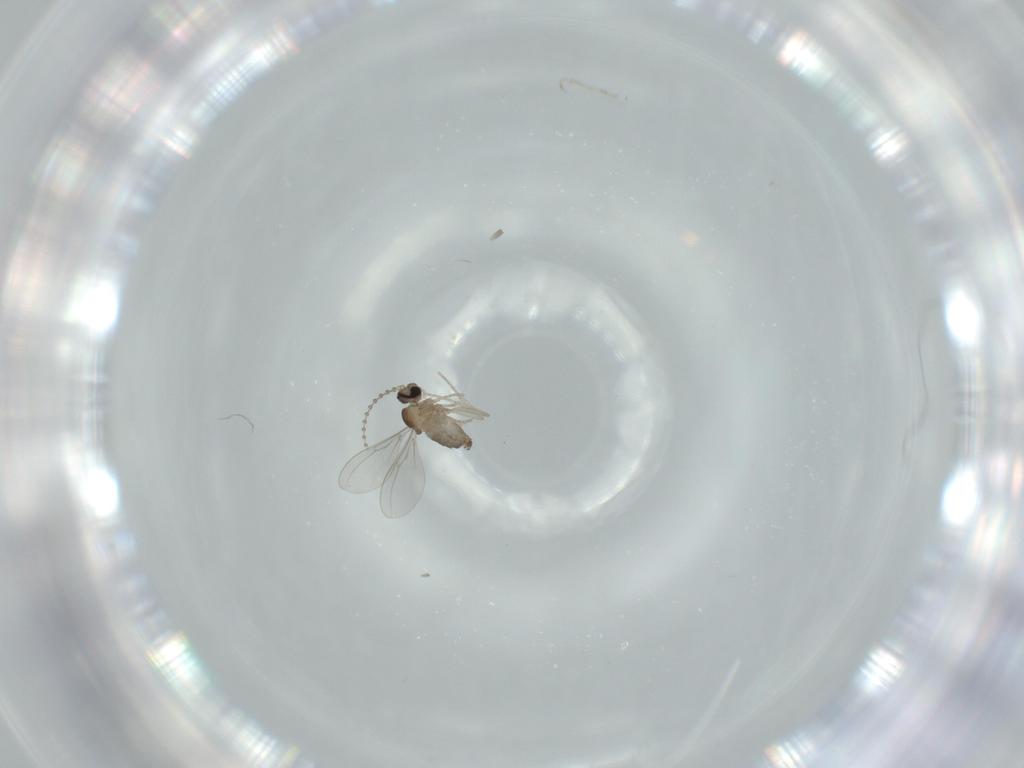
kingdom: Animalia
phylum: Arthropoda
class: Insecta
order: Diptera
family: Cecidomyiidae
